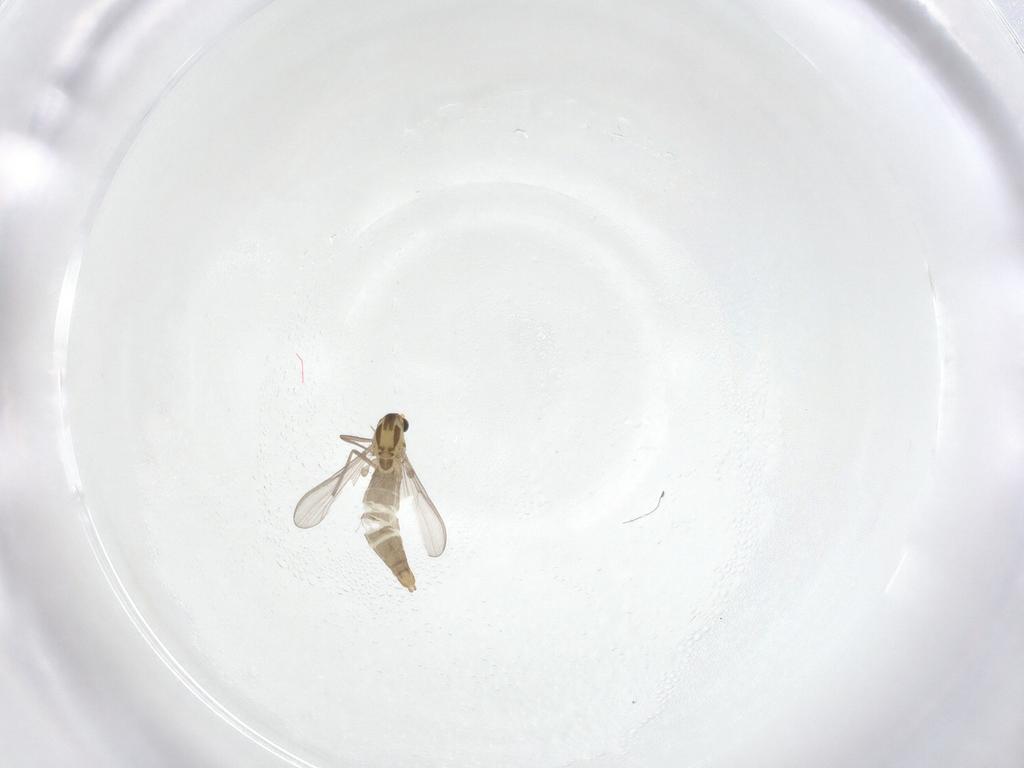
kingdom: Animalia
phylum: Arthropoda
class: Insecta
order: Diptera
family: Chironomidae
